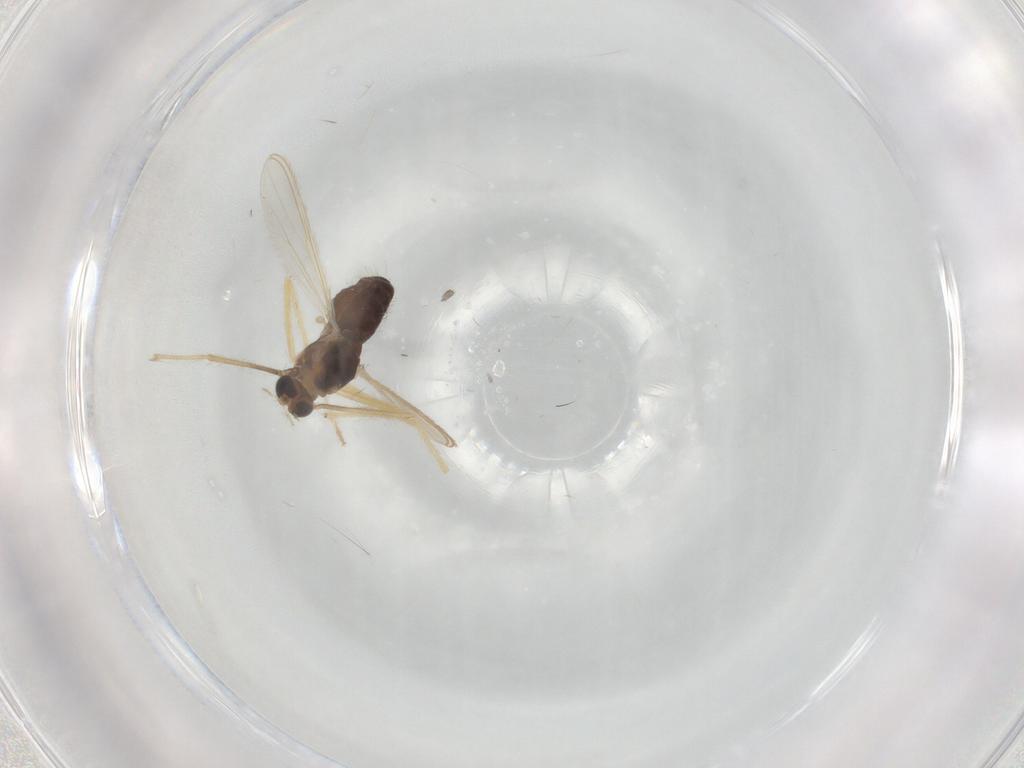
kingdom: Animalia
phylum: Arthropoda
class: Insecta
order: Diptera
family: Chironomidae
